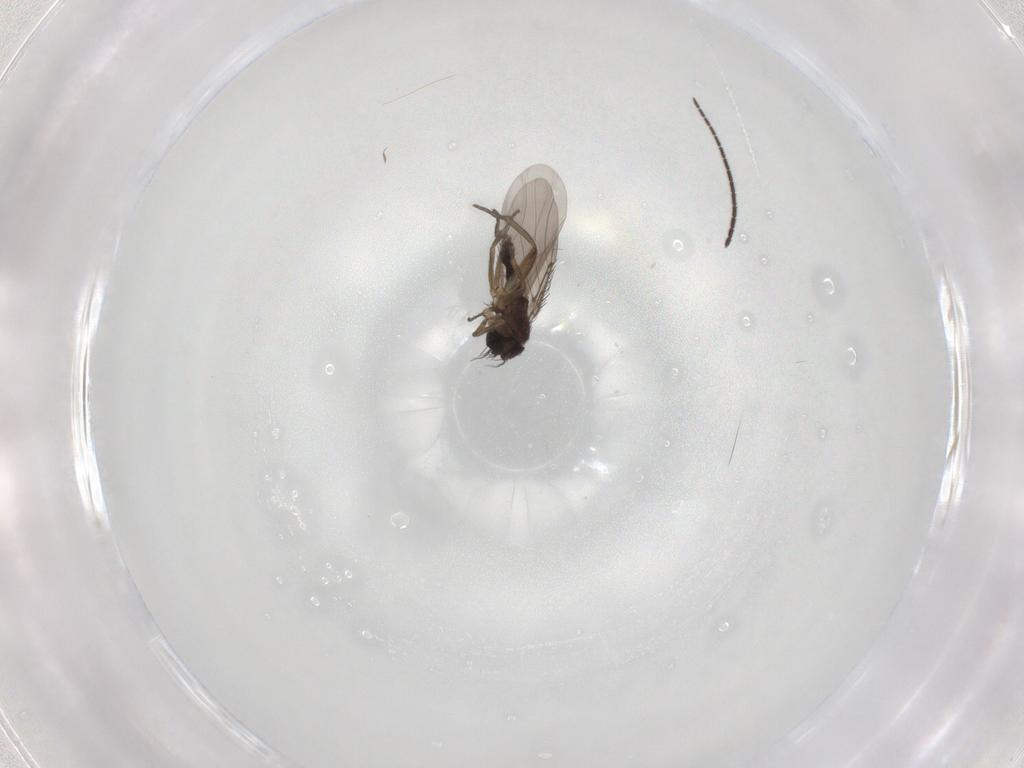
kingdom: Animalia
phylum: Arthropoda
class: Insecta
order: Diptera
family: Phoridae
